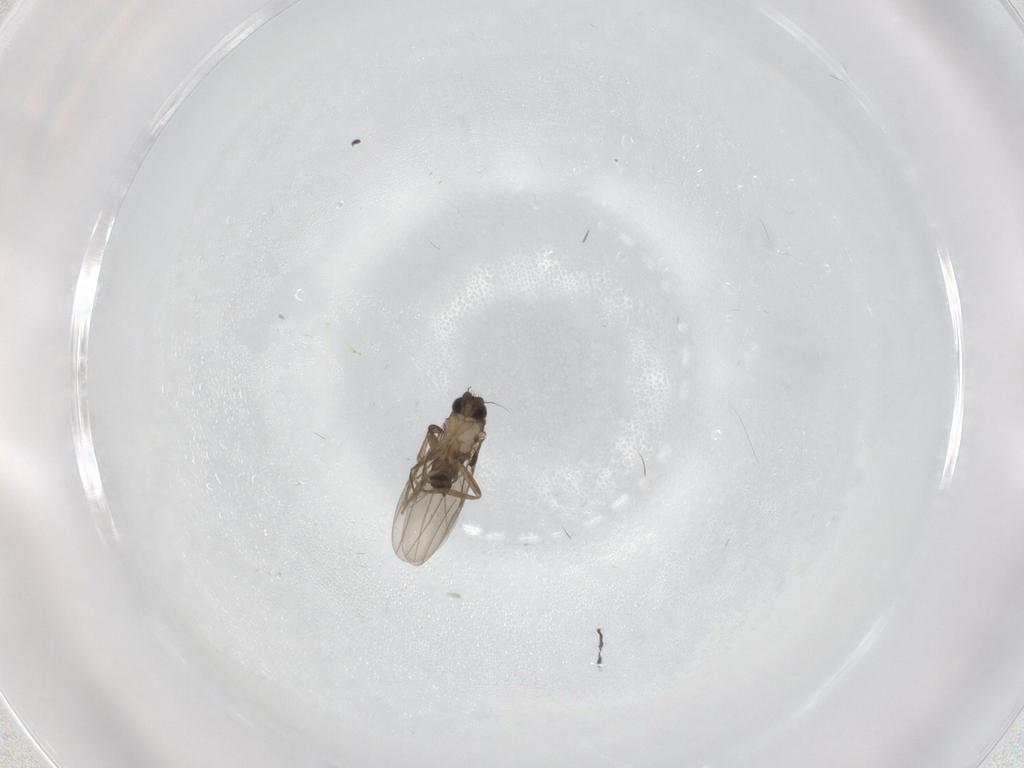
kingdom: Animalia
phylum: Arthropoda
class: Insecta
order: Diptera
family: Phoridae
